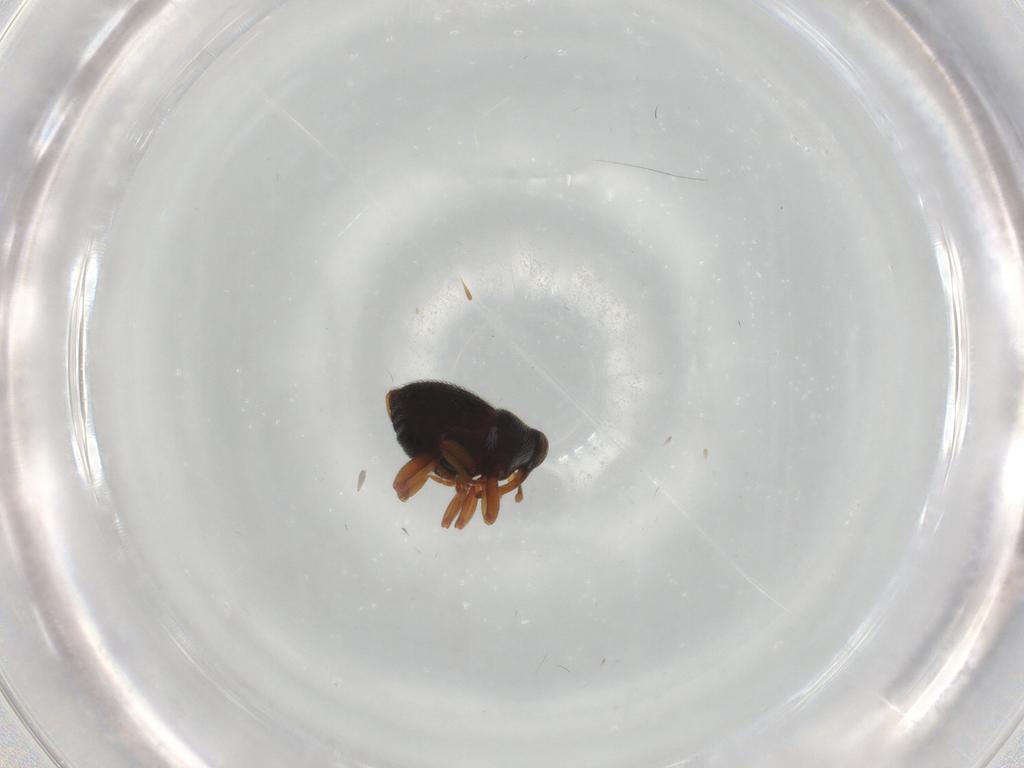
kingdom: Animalia
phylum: Arthropoda
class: Insecta
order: Coleoptera
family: Curculionidae
